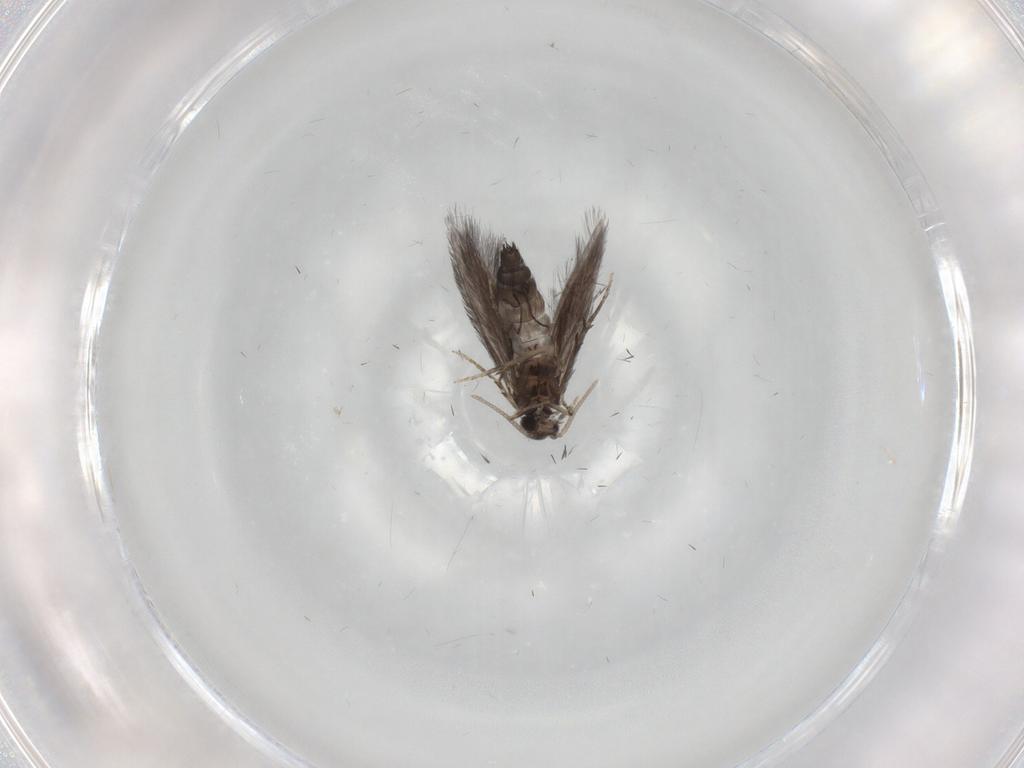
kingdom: Animalia
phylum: Arthropoda
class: Insecta
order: Trichoptera
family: Hydroptilidae
